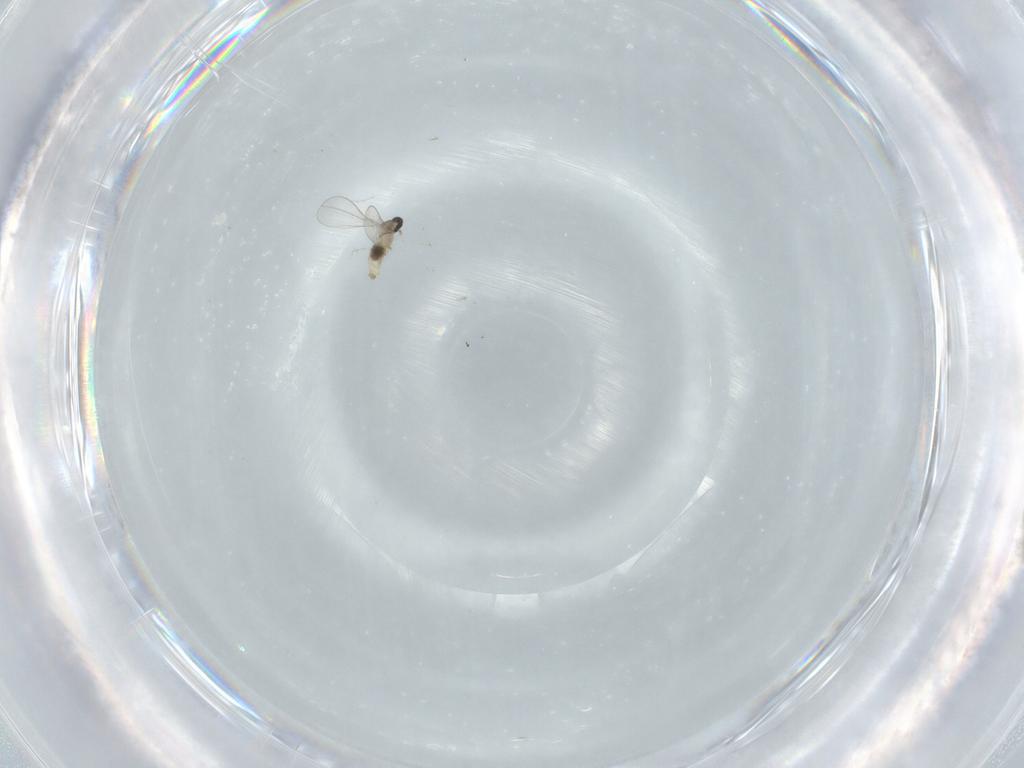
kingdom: Animalia
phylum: Arthropoda
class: Insecta
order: Diptera
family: Cecidomyiidae
